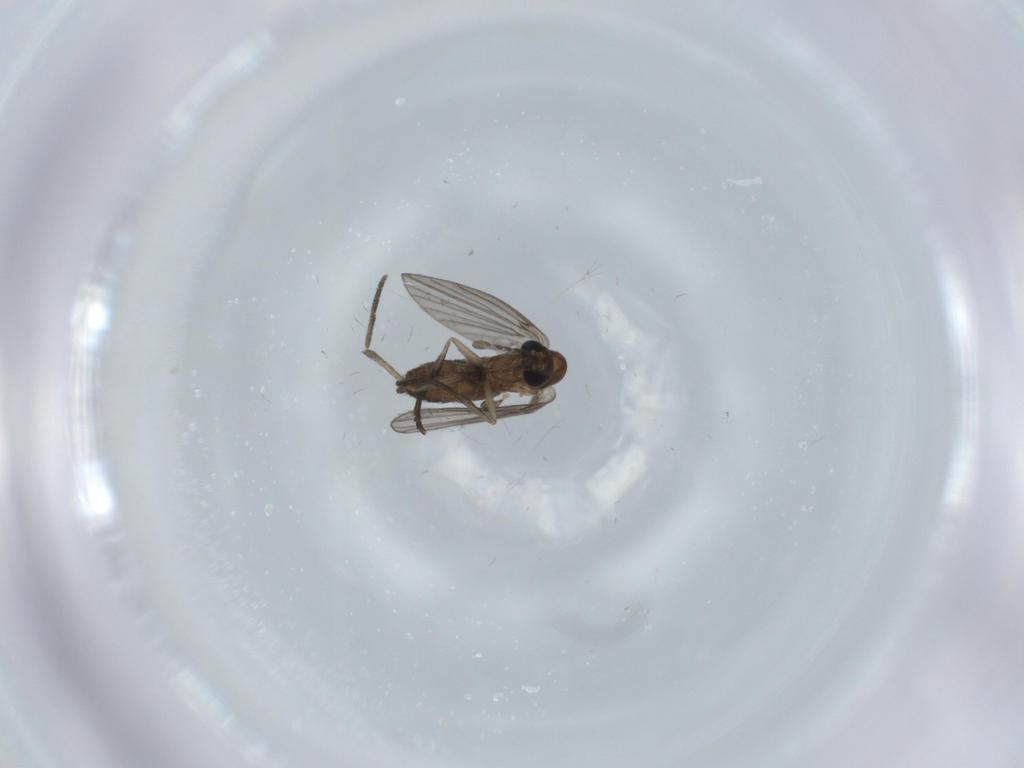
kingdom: Animalia
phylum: Arthropoda
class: Insecta
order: Diptera
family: Psychodidae
